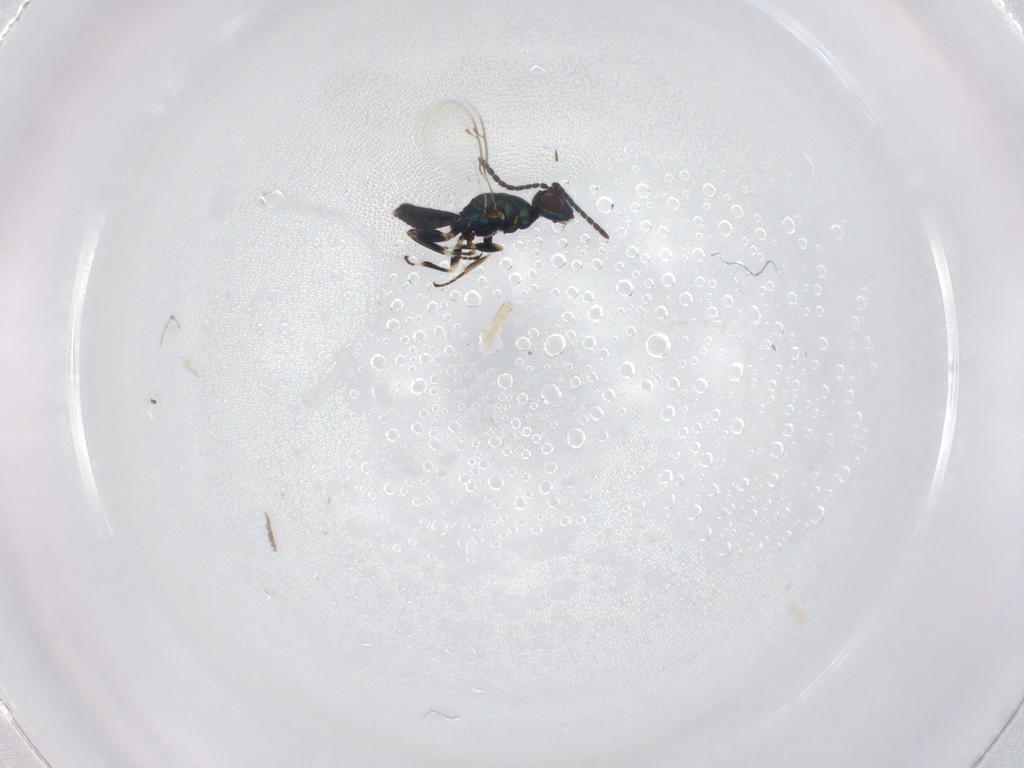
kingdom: Animalia
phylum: Arthropoda
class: Insecta
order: Hymenoptera
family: Eupelmidae
